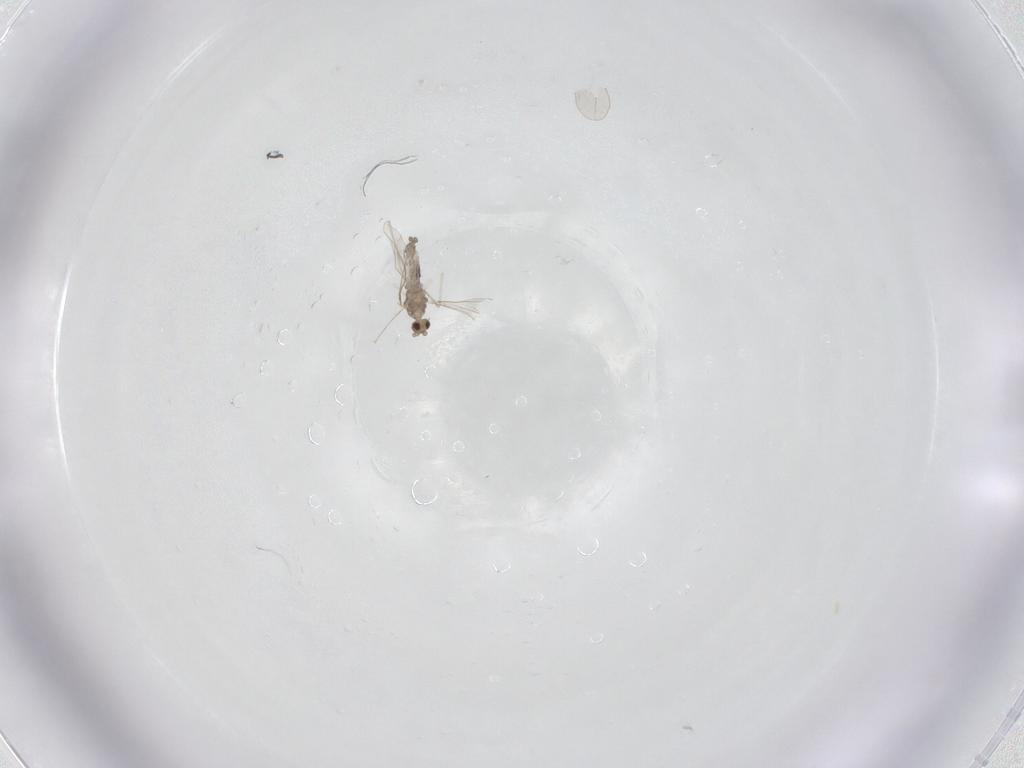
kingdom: Animalia
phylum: Arthropoda
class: Insecta
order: Diptera
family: Cecidomyiidae
